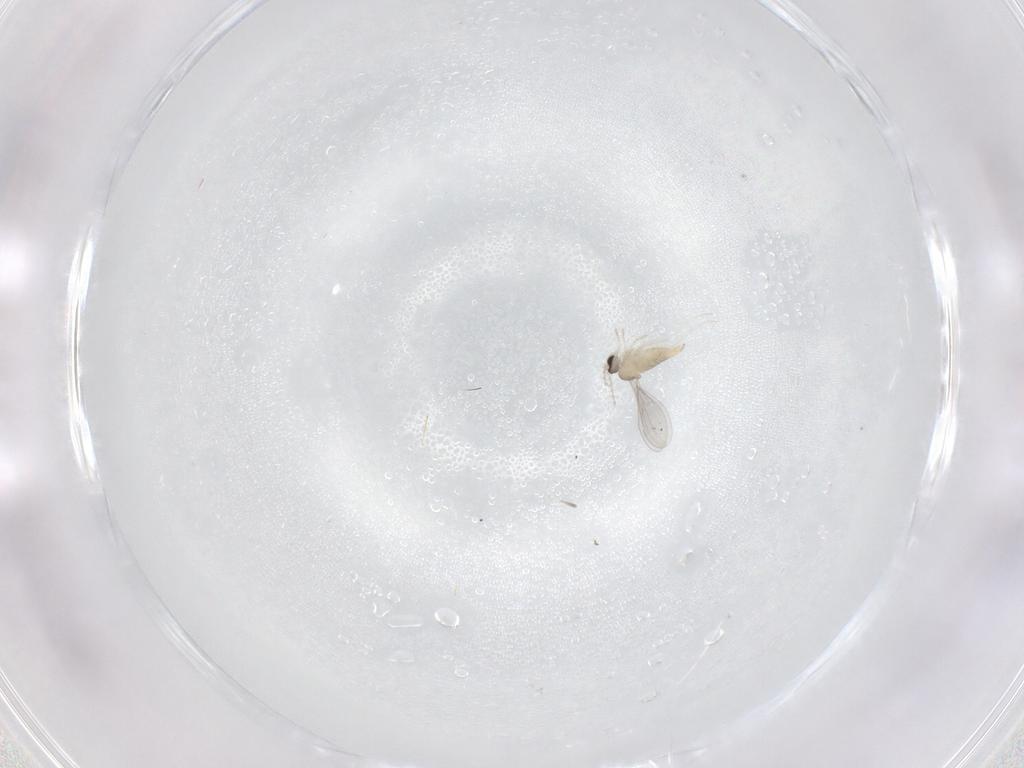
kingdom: Animalia
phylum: Arthropoda
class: Insecta
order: Diptera
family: Cecidomyiidae
